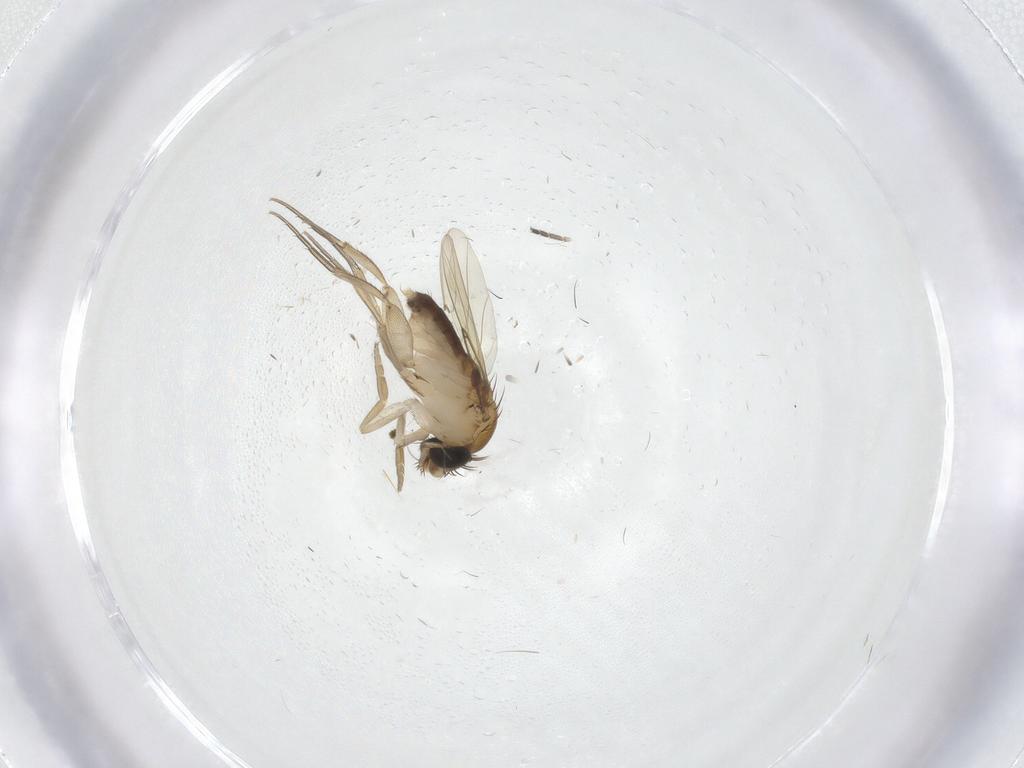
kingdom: Animalia
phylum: Arthropoda
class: Insecta
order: Diptera
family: Phoridae
